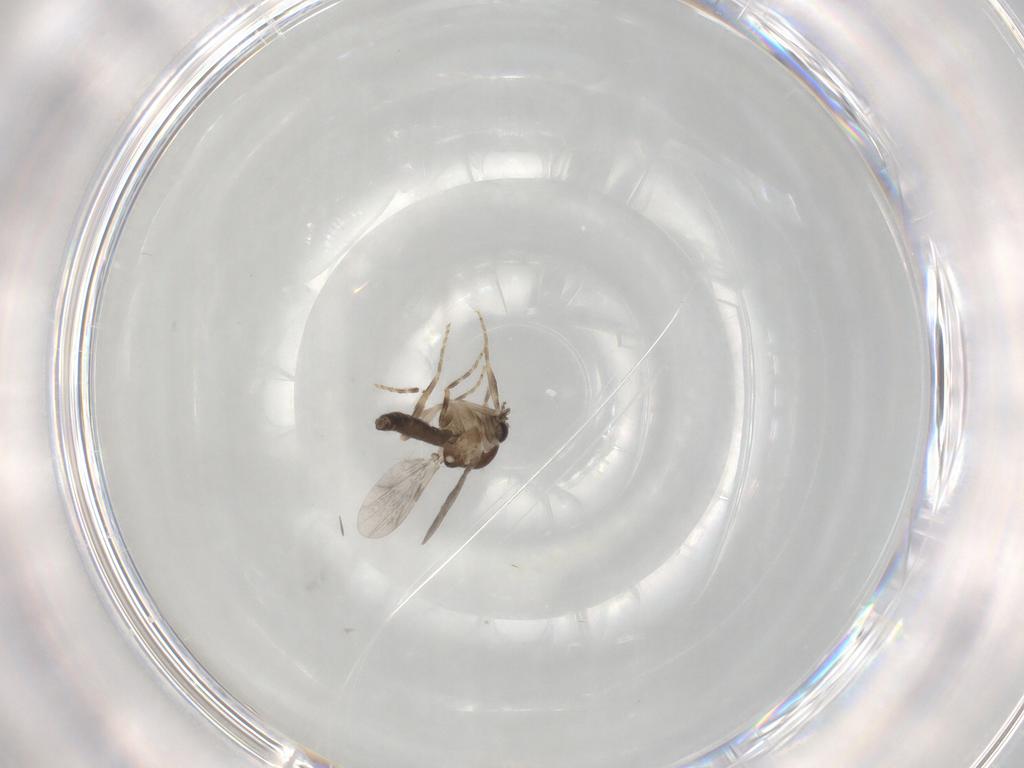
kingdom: Animalia
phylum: Arthropoda
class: Insecta
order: Diptera
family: Ceratopogonidae
